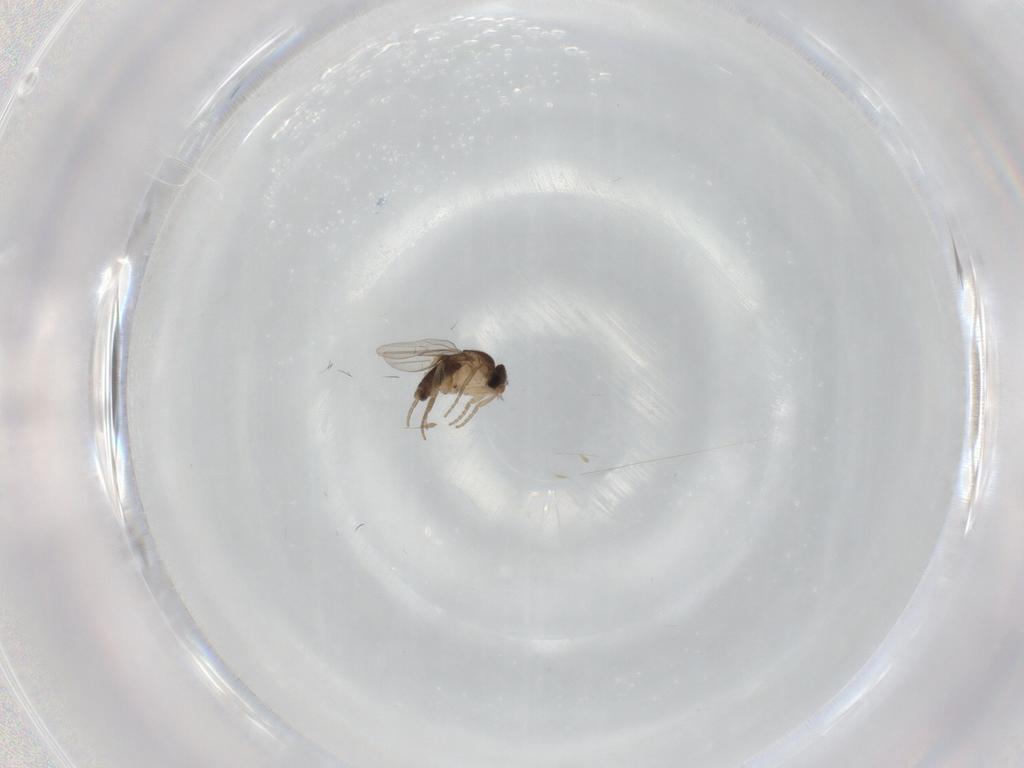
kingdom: Animalia
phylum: Arthropoda
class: Insecta
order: Diptera
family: Phoridae
